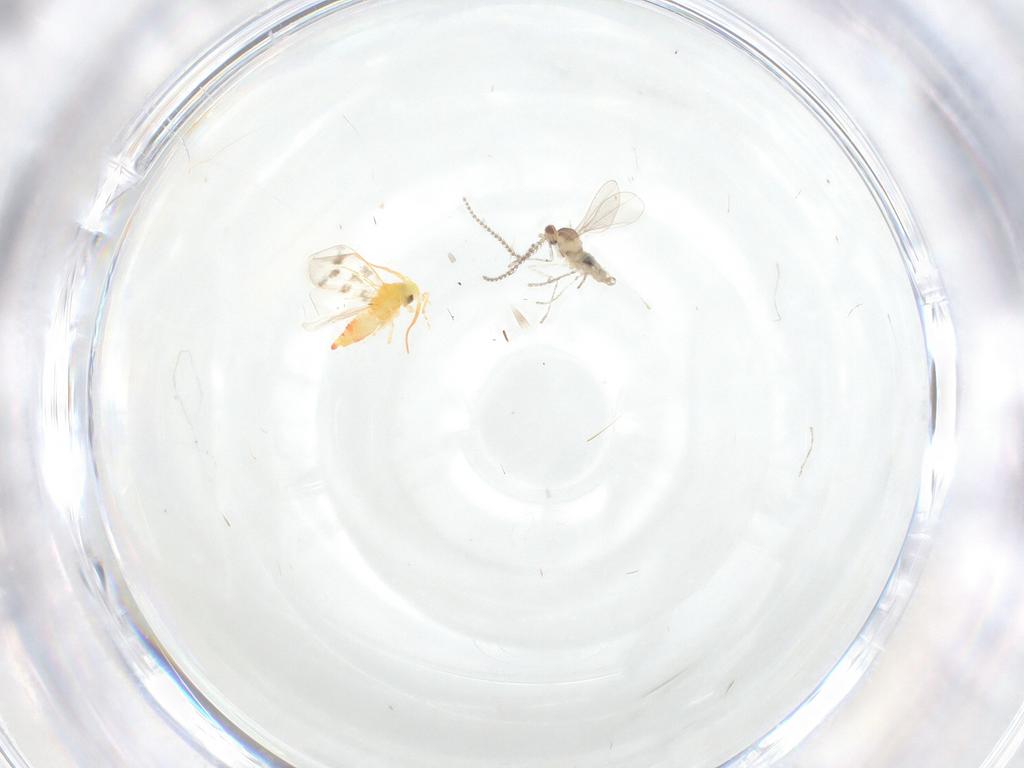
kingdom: Animalia
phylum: Arthropoda
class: Insecta
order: Diptera
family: Cecidomyiidae
